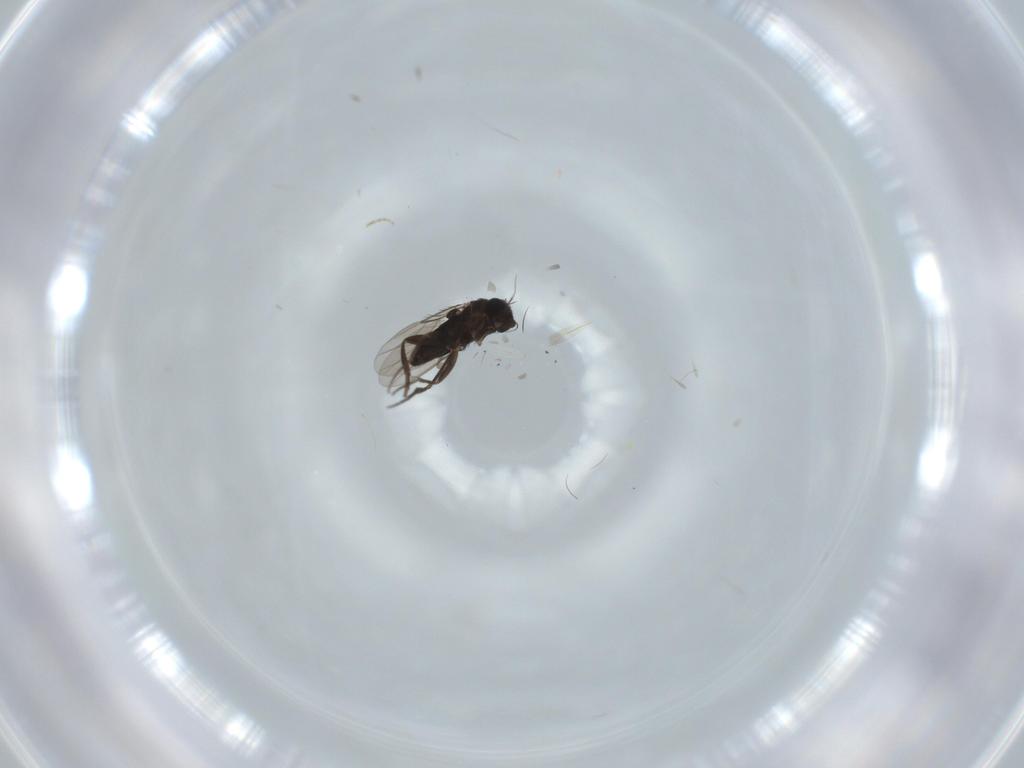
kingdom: Animalia
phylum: Arthropoda
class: Insecta
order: Diptera
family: Phoridae
